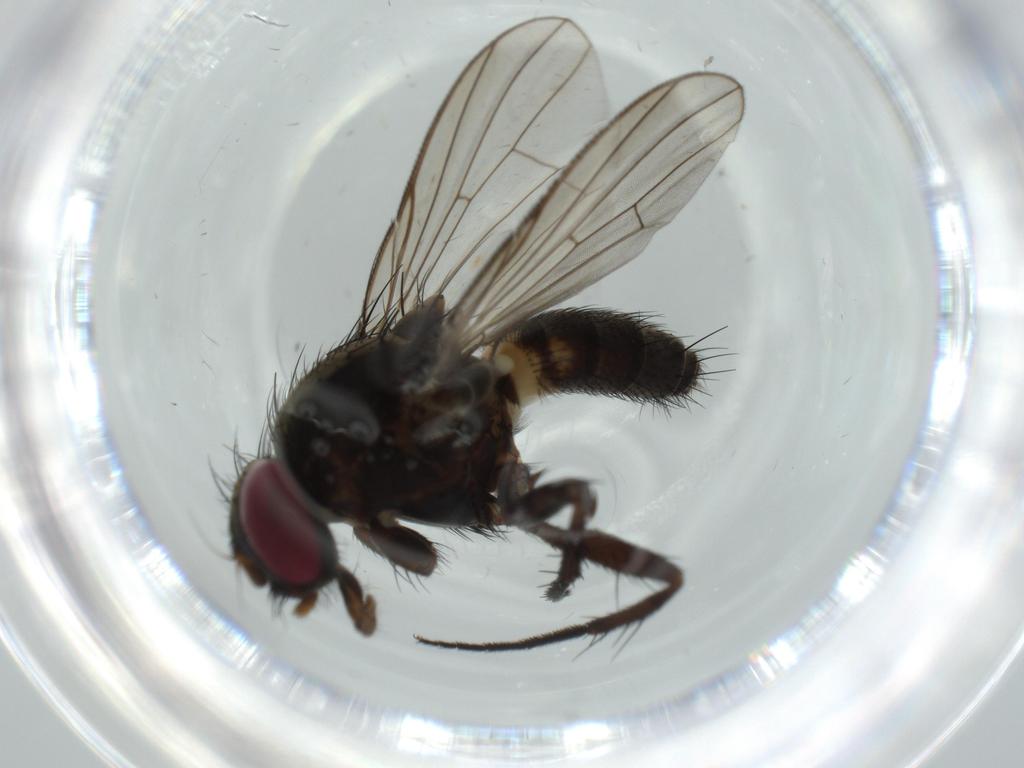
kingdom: Animalia
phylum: Arthropoda
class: Insecta
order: Diptera
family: Fannia
